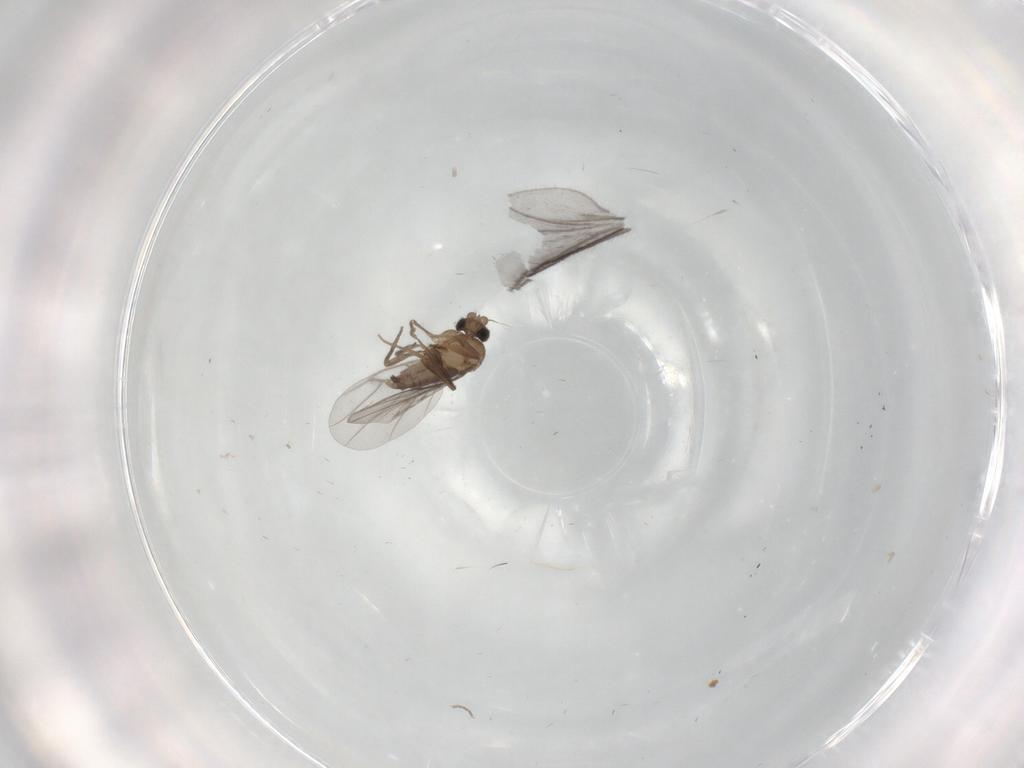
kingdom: Animalia
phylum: Arthropoda
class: Insecta
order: Diptera
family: Sciaridae
